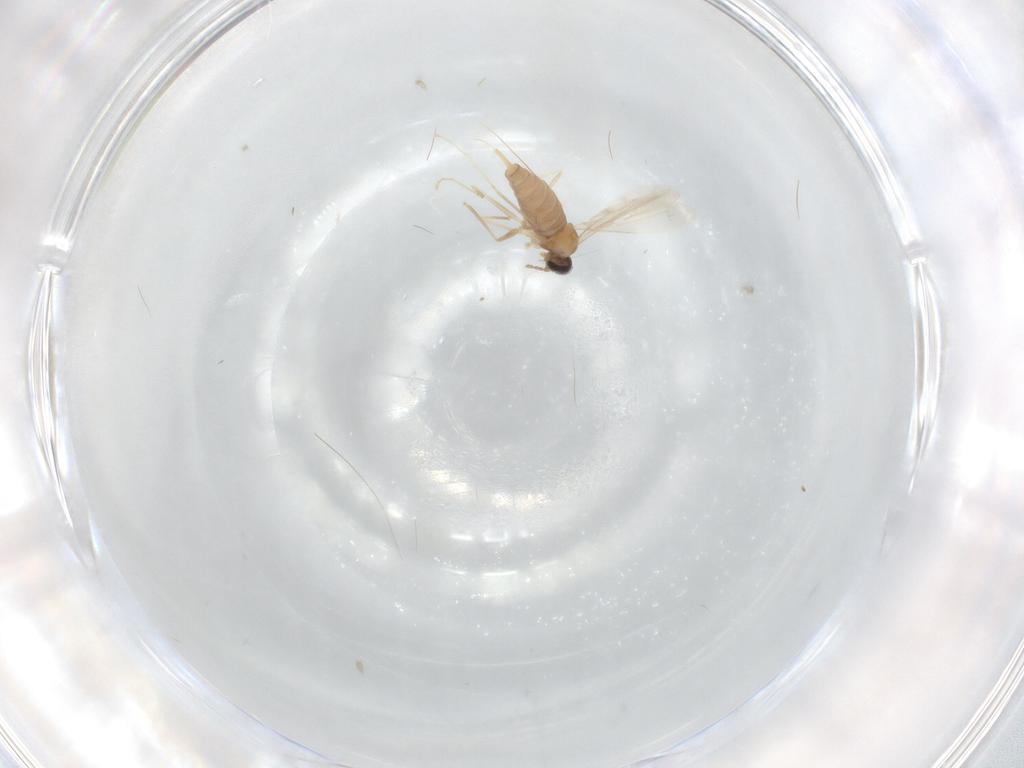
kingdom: Animalia
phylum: Arthropoda
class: Insecta
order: Diptera
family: Cecidomyiidae
